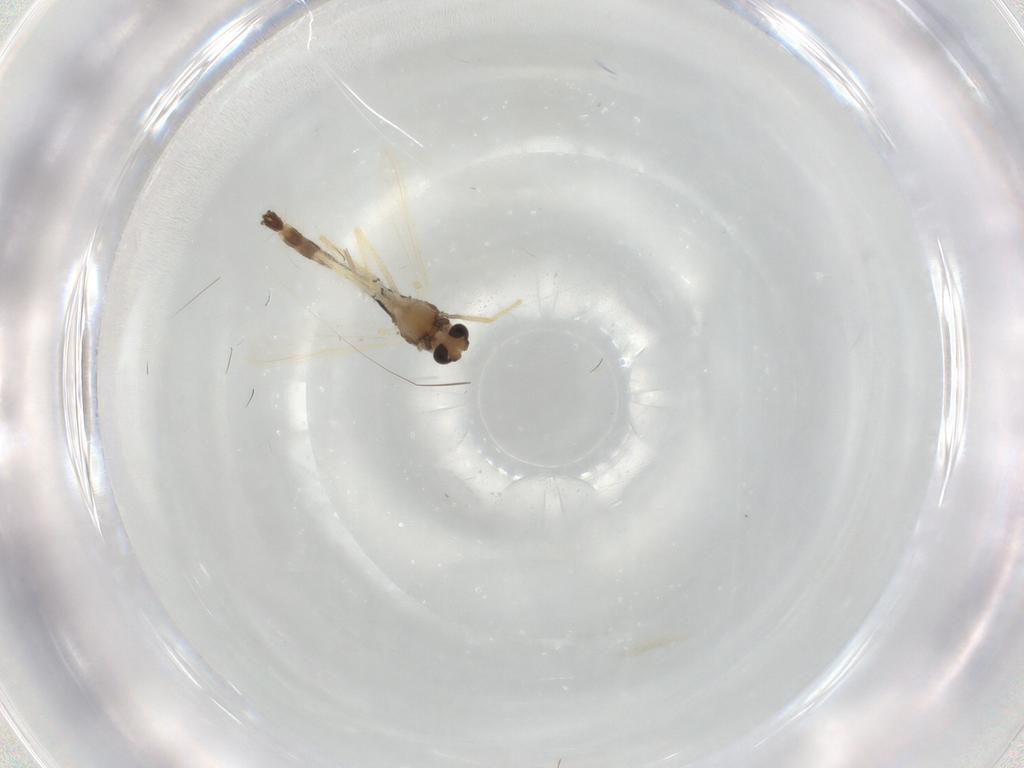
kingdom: Animalia
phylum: Arthropoda
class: Insecta
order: Diptera
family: Chironomidae
